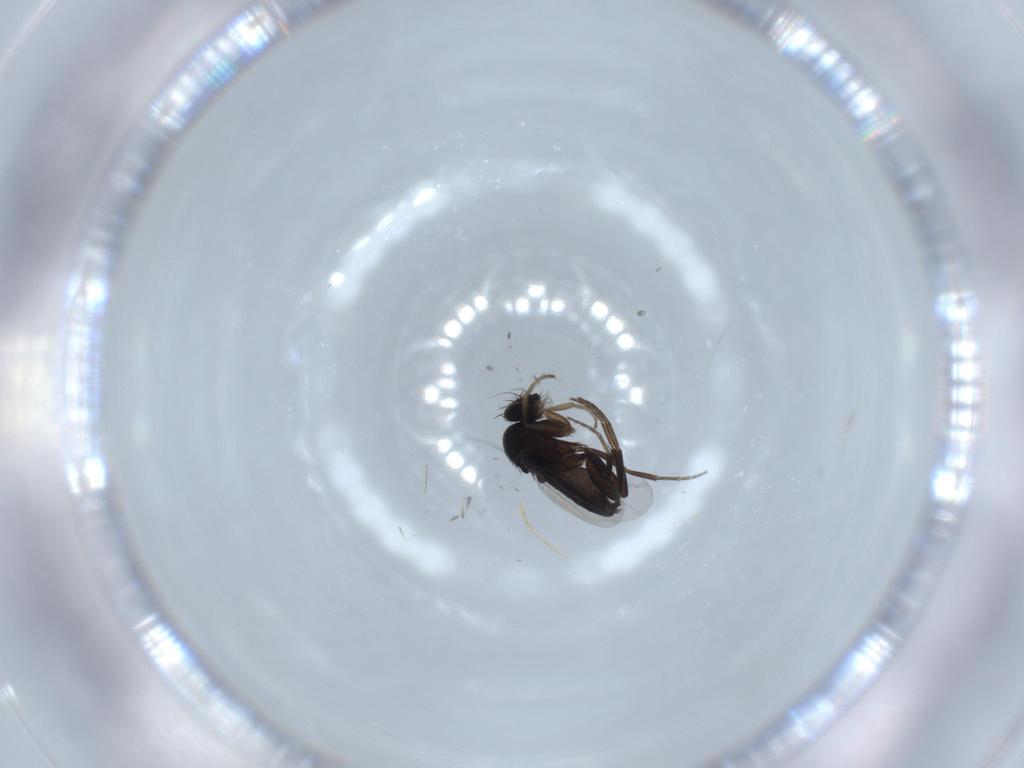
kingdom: Animalia
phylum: Arthropoda
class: Insecta
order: Diptera
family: Phoridae
